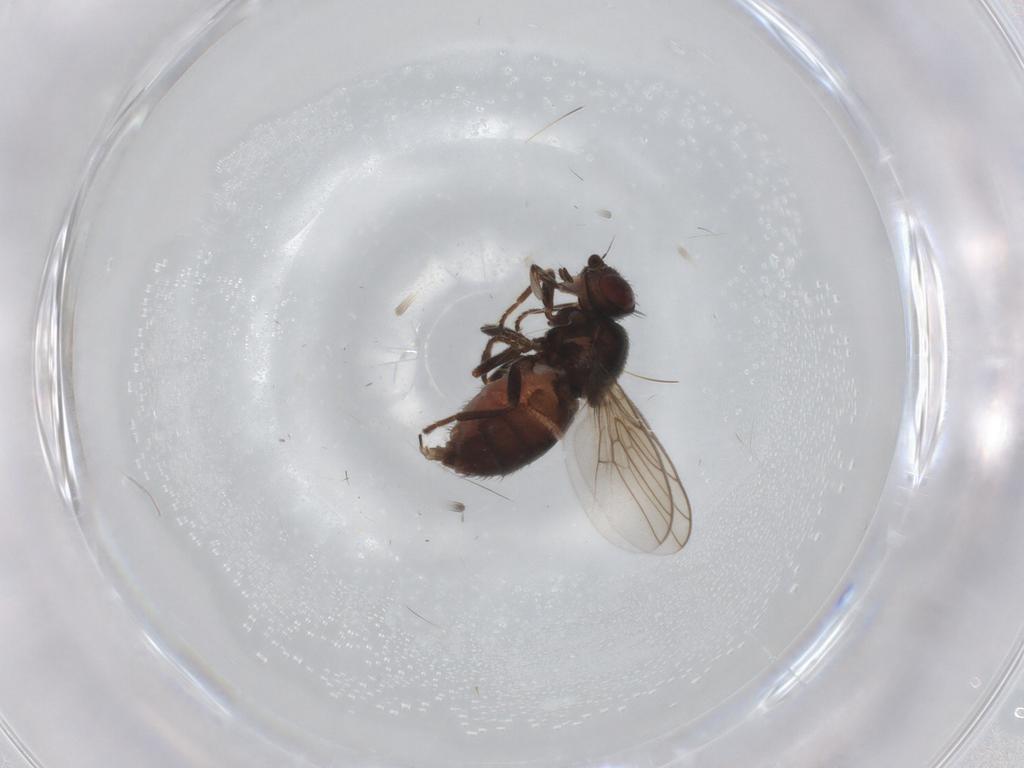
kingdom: Animalia
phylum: Arthropoda
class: Insecta
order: Diptera
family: Chloropidae
